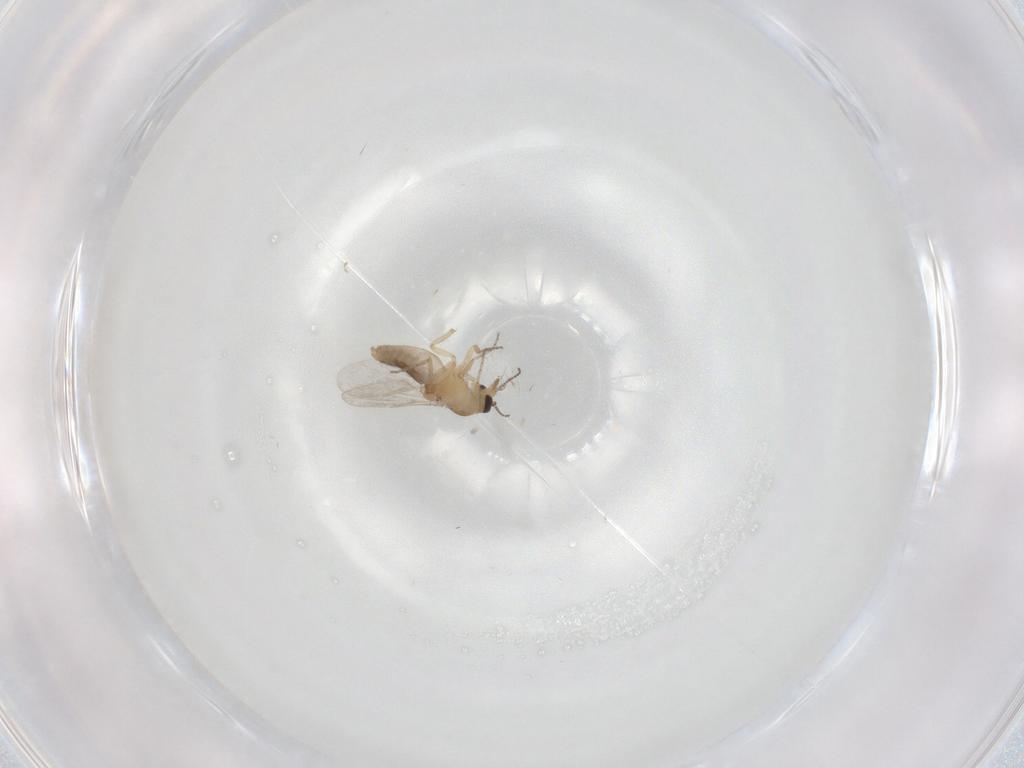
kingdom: Animalia
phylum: Arthropoda
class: Insecta
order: Diptera
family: Ceratopogonidae
